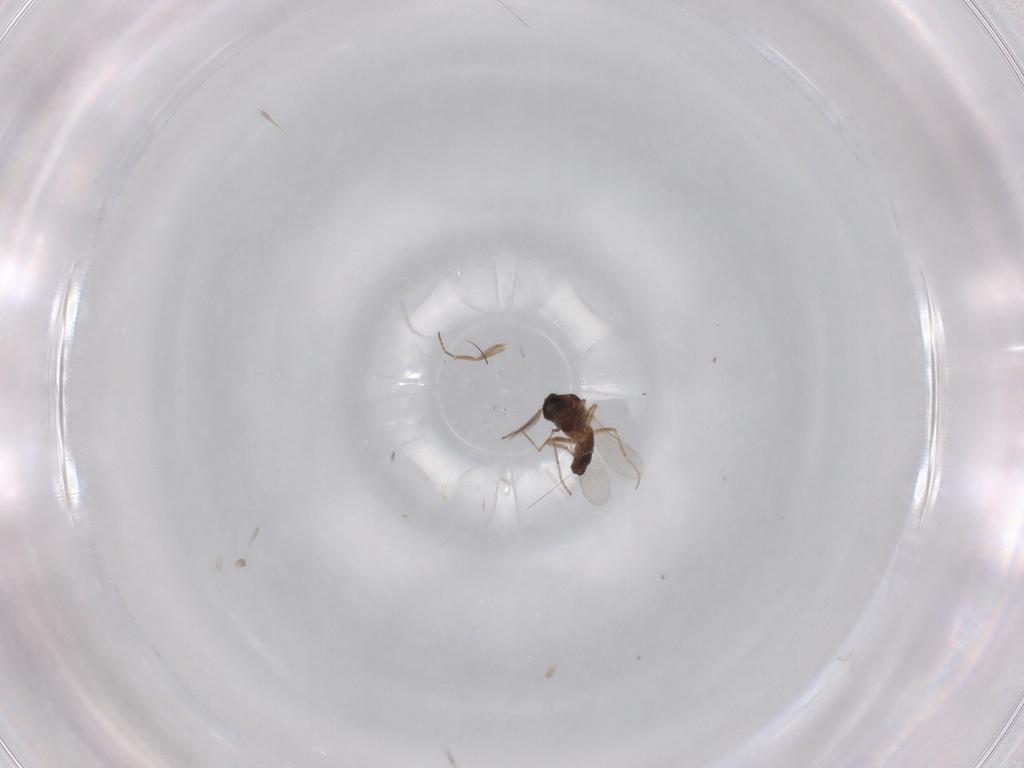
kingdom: Animalia
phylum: Arthropoda
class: Insecta
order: Diptera
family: Ceratopogonidae
